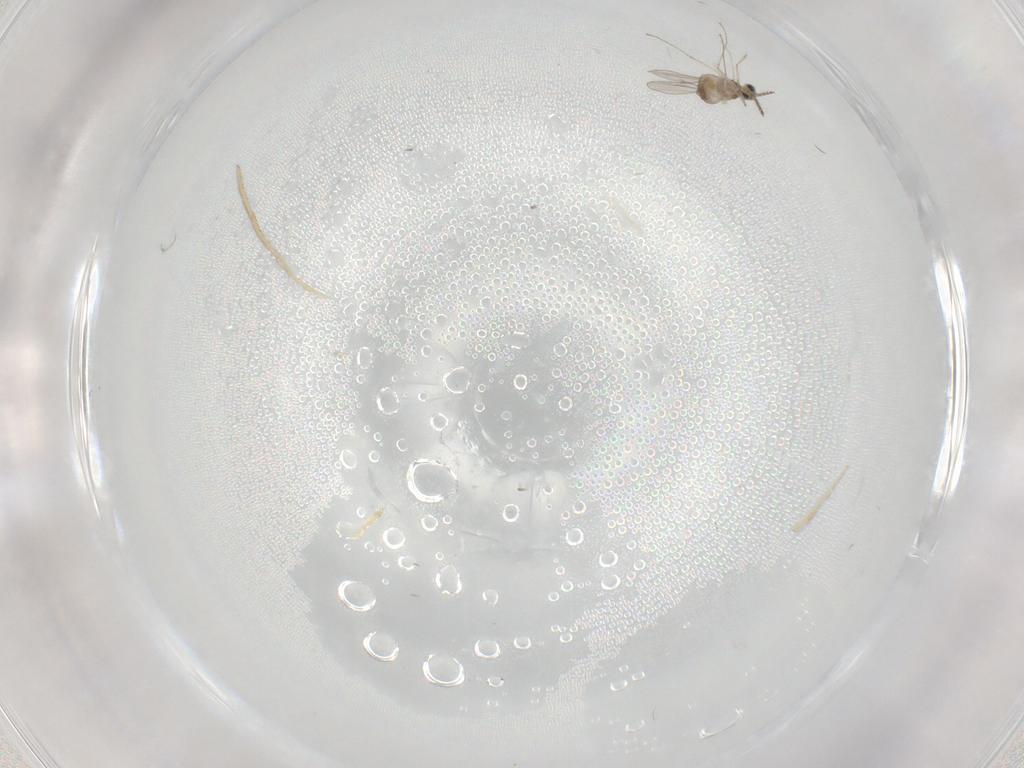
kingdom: Animalia
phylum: Arthropoda
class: Insecta
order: Diptera
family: Cecidomyiidae
